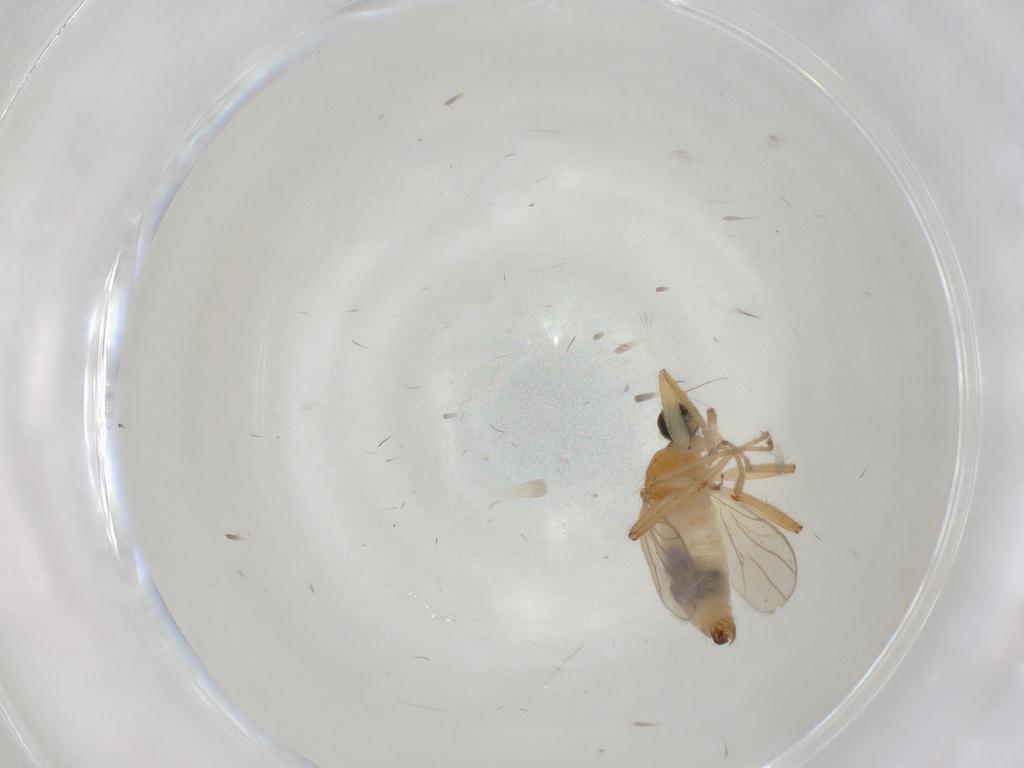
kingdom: Animalia
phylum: Arthropoda
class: Insecta
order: Diptera
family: Hybotidae
